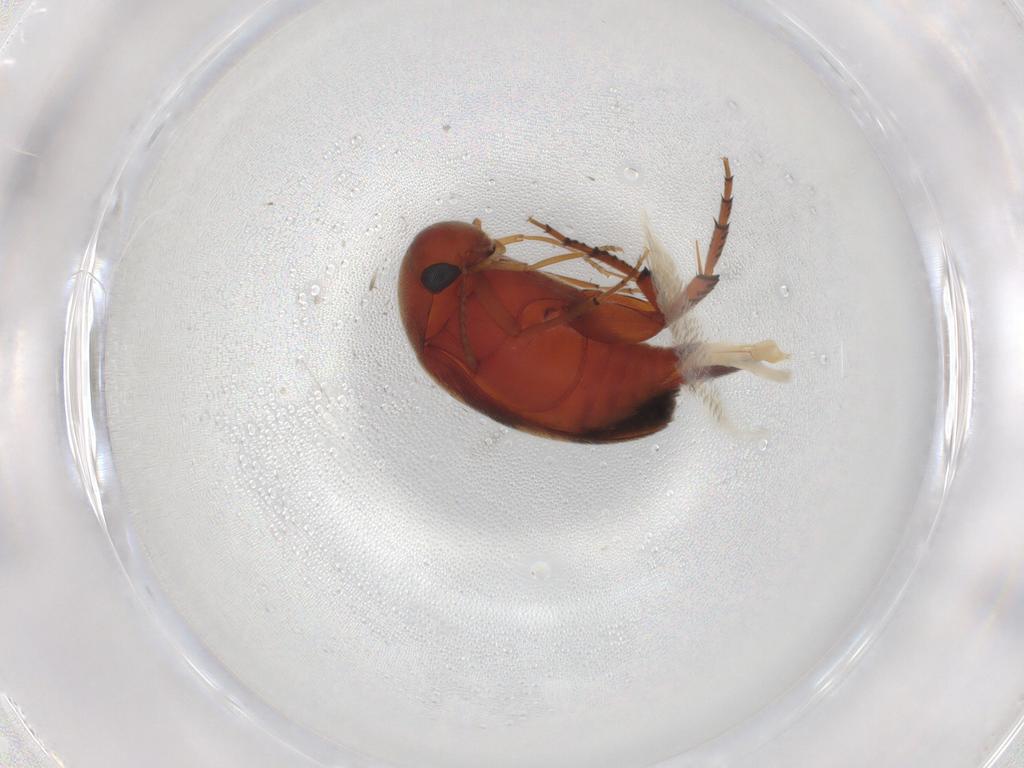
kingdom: Animalia
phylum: Arthropoda
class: Insecta
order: Coleoptera
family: Mordellidae
